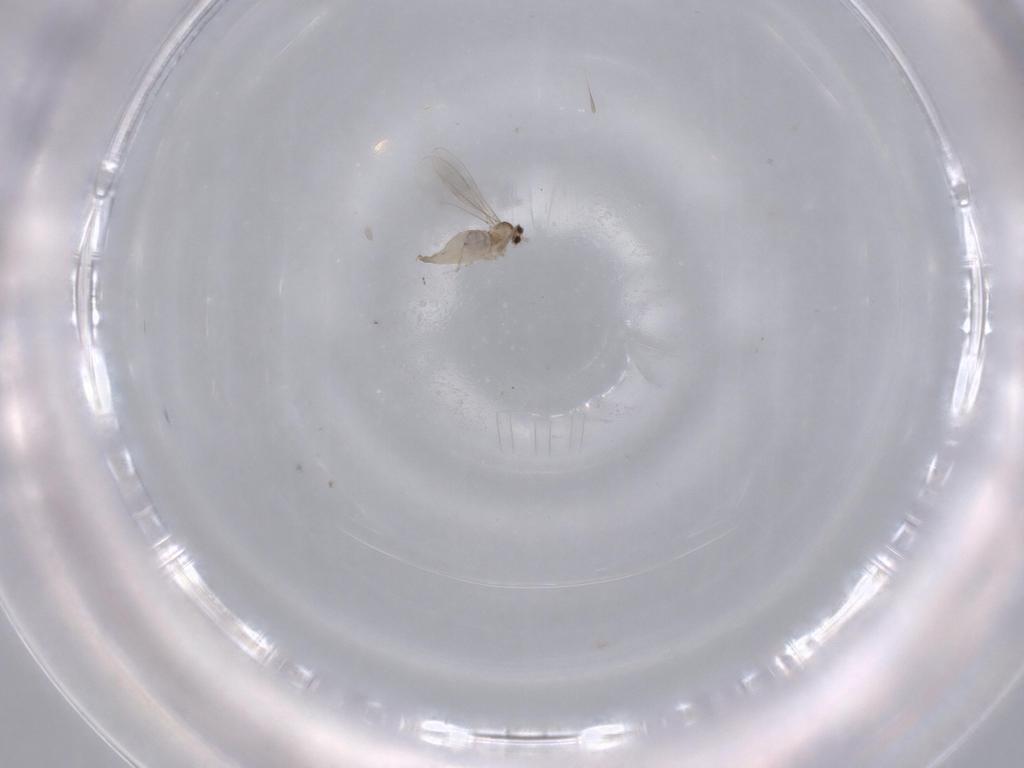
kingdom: Animalia
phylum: Arthropoda
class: Insecta
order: Diptera
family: Cecidomyiidae
